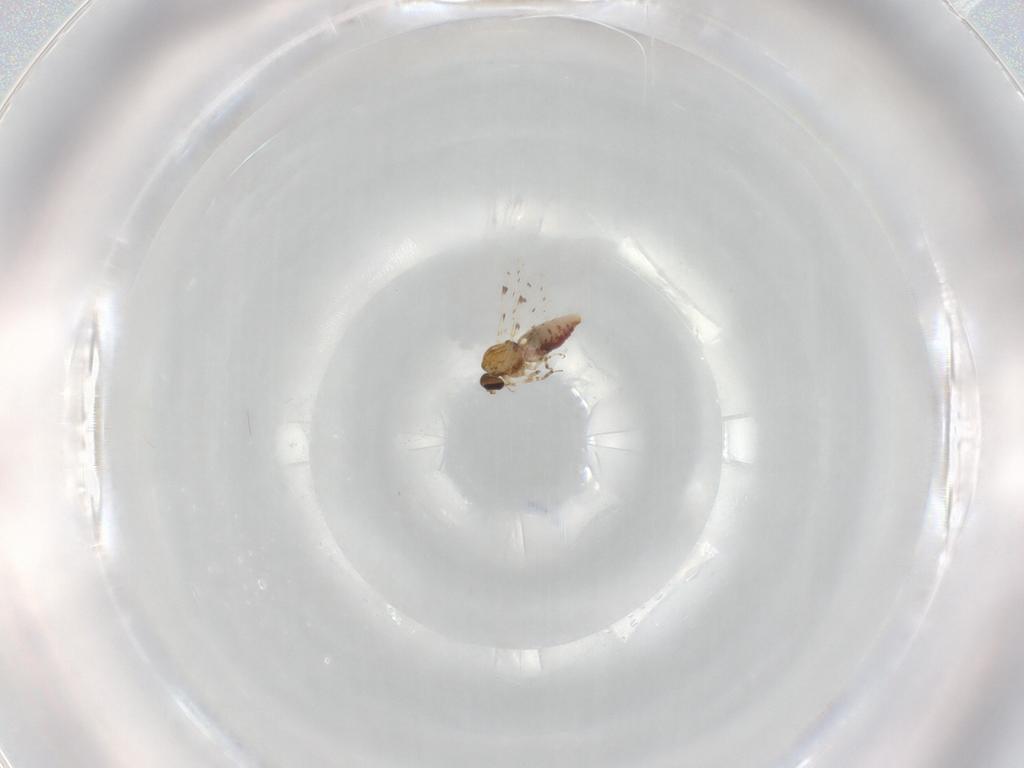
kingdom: Animalia
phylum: Arthropoda
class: Insecta
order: Diptera
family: Ceratopogonidae
